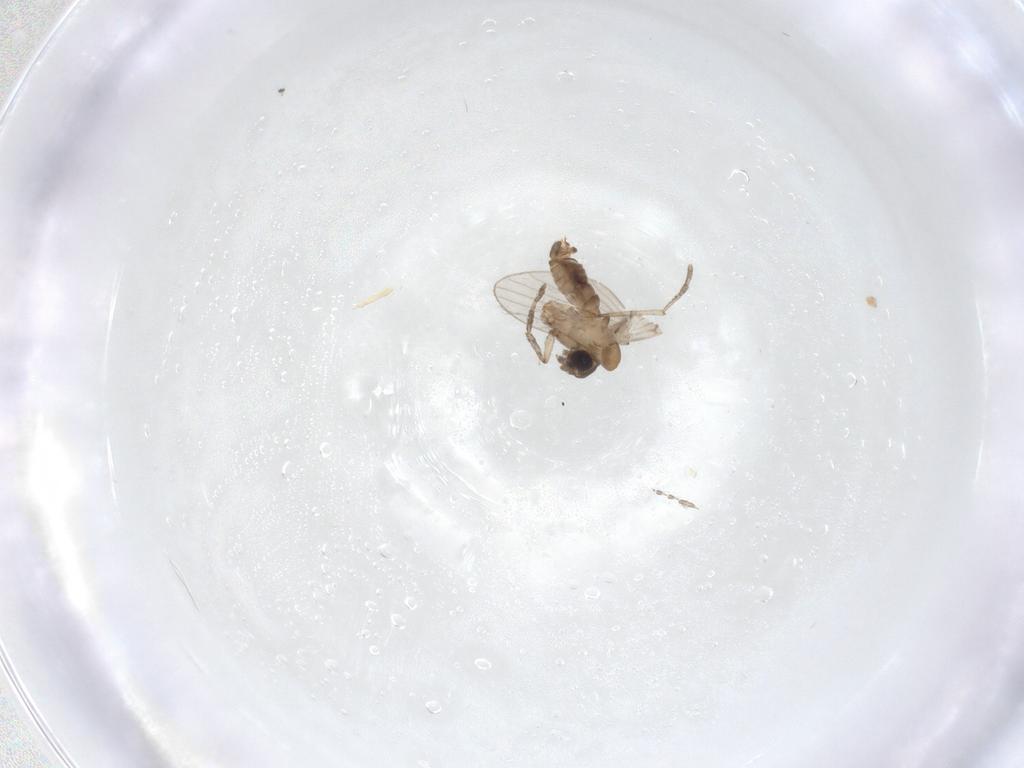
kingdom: Animalia
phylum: Arthropoda
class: Insecta
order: Diptera
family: Psychodidae
